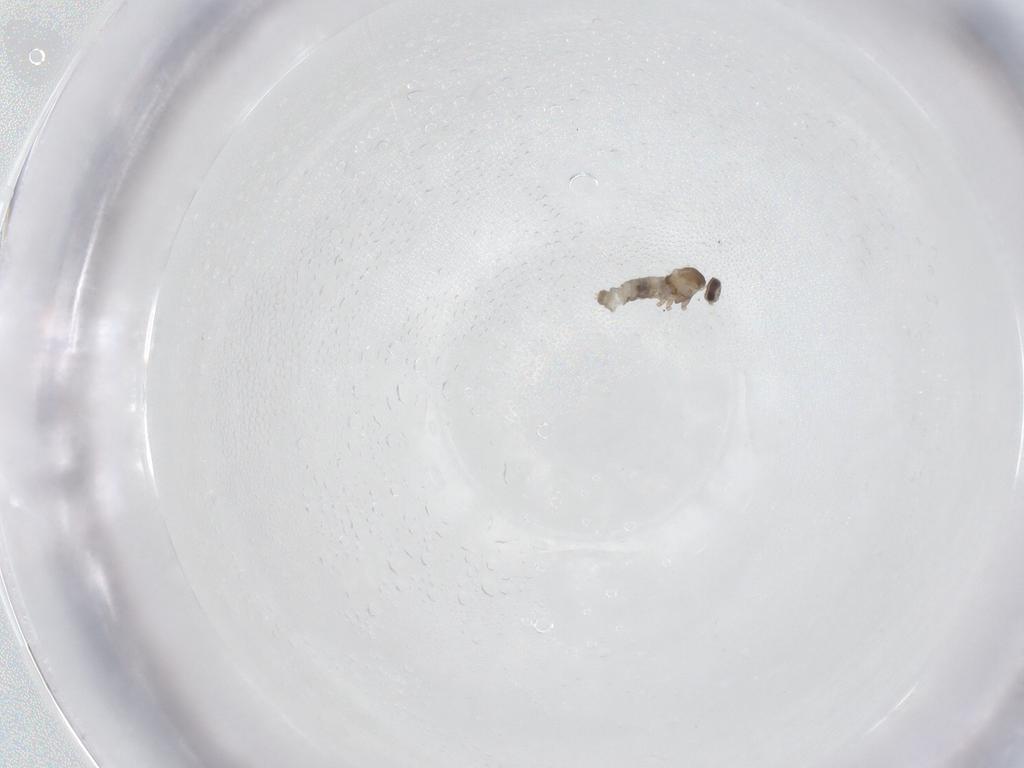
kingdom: Animalia
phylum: Arthropoda
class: Insecta
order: Diptera
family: Cecidomyiidae
